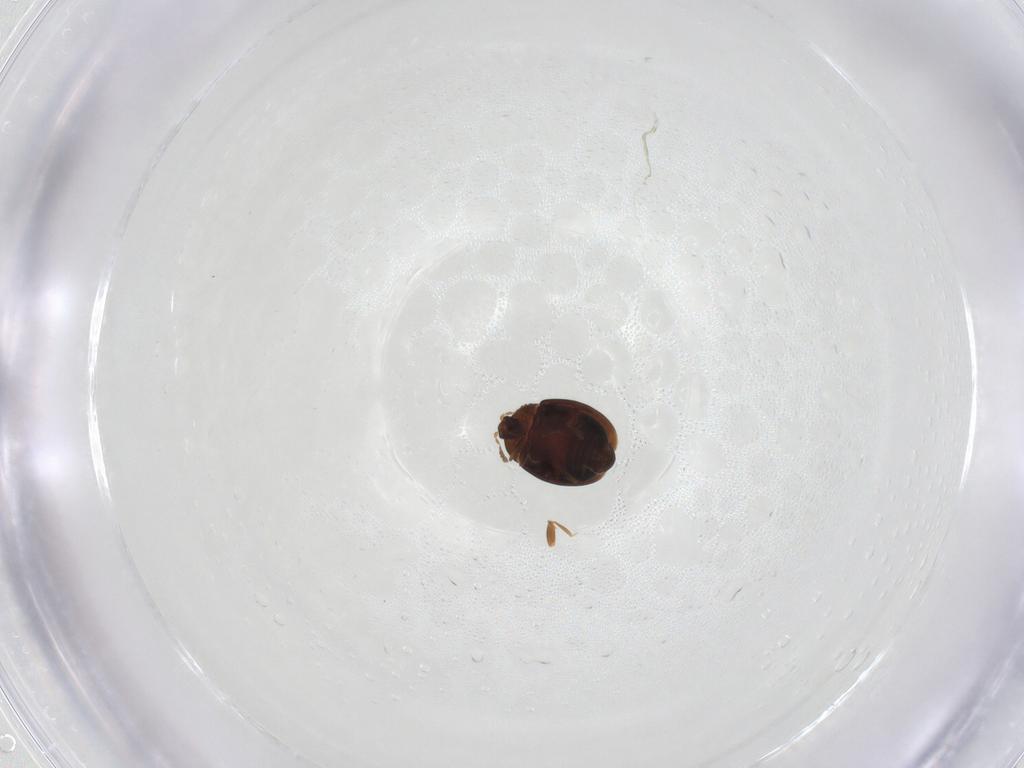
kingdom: Animalia
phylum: Arthropoda
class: Insecta
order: Coleoptera
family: Corylophidae
